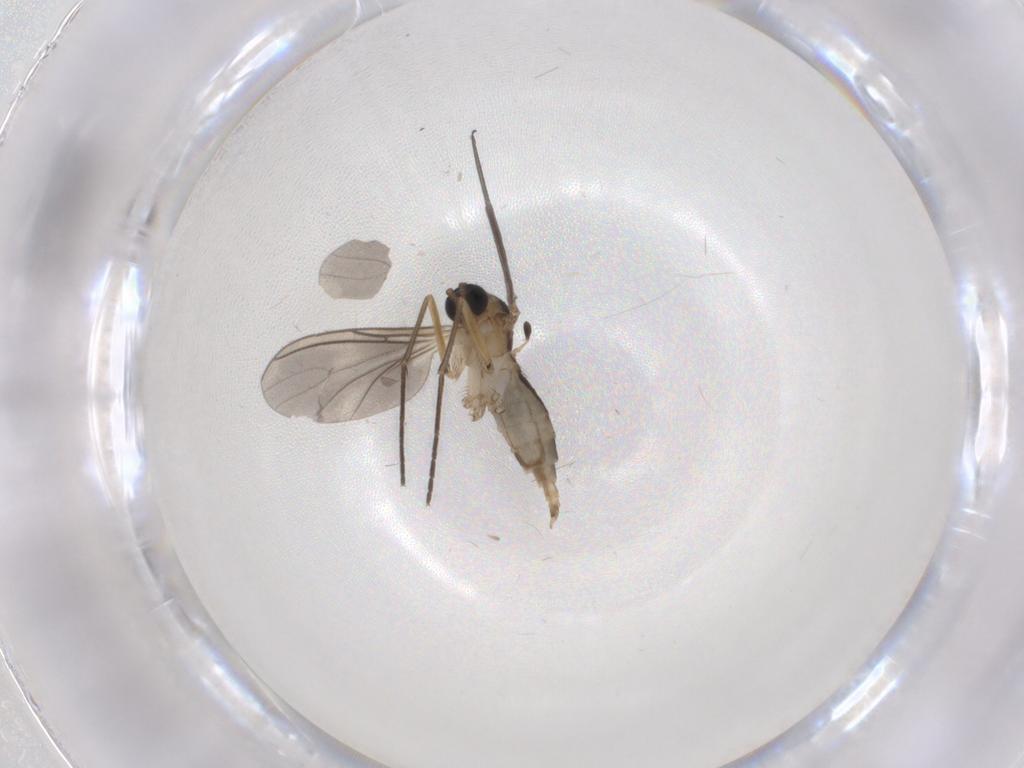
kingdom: Animalia
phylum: Arthropoda
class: Insecta
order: Diptera
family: Sciaridae
